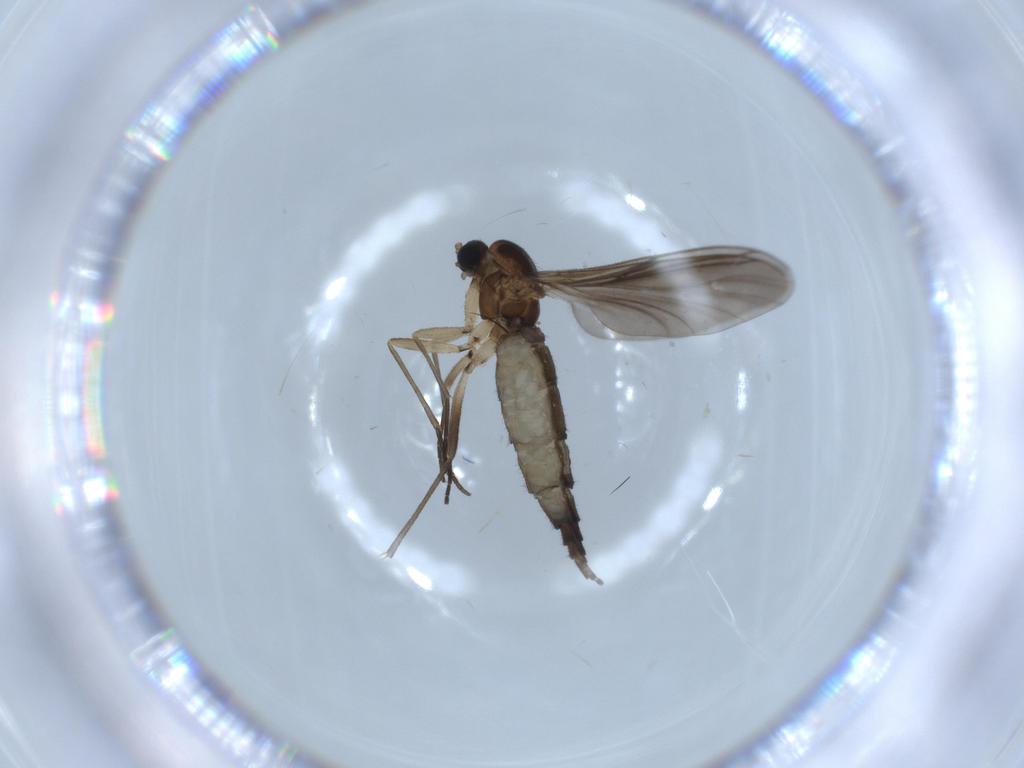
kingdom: Animalia
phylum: Arthropoda
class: Insecta
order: Diptera
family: Sciaridae
